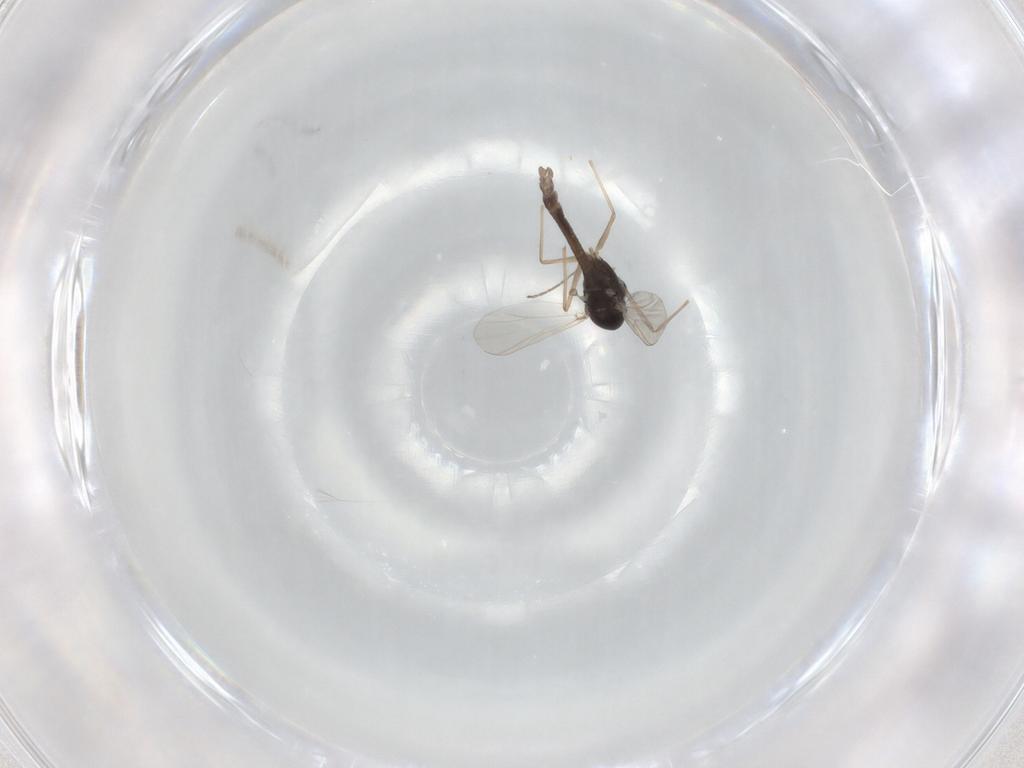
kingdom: Animalia
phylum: Arthropoda
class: Insecta
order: Diptera
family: Chironomidae
